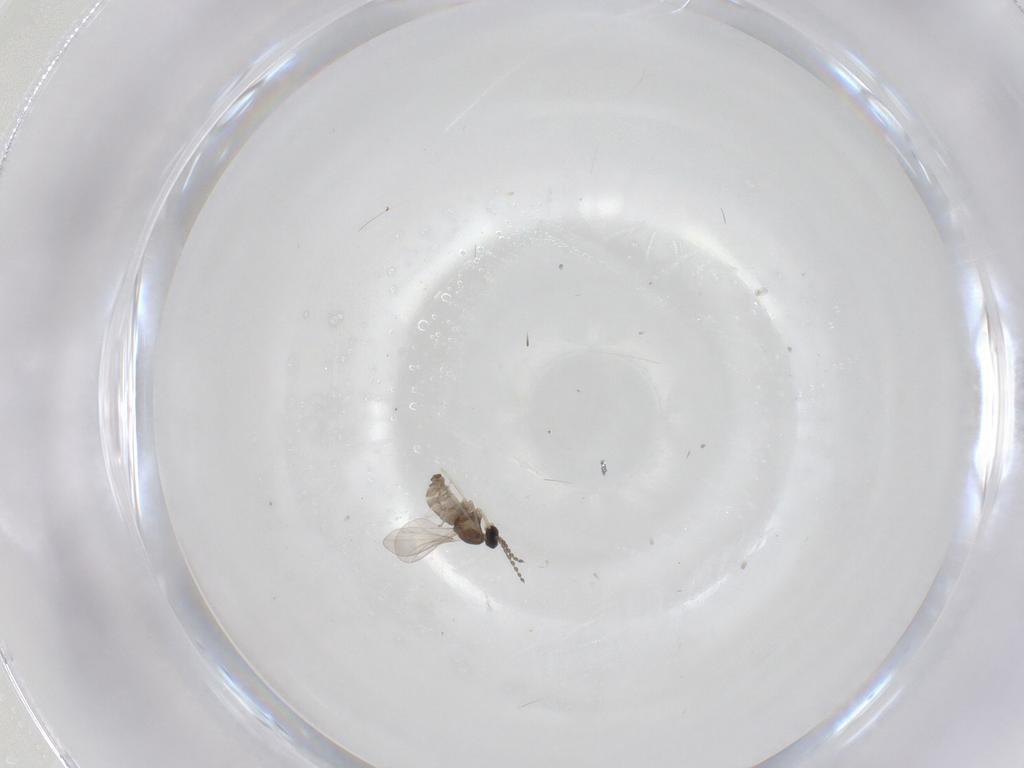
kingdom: Animalia
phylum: Arthropoda
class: Insecta
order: Diptera
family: Cecidomyiidae
